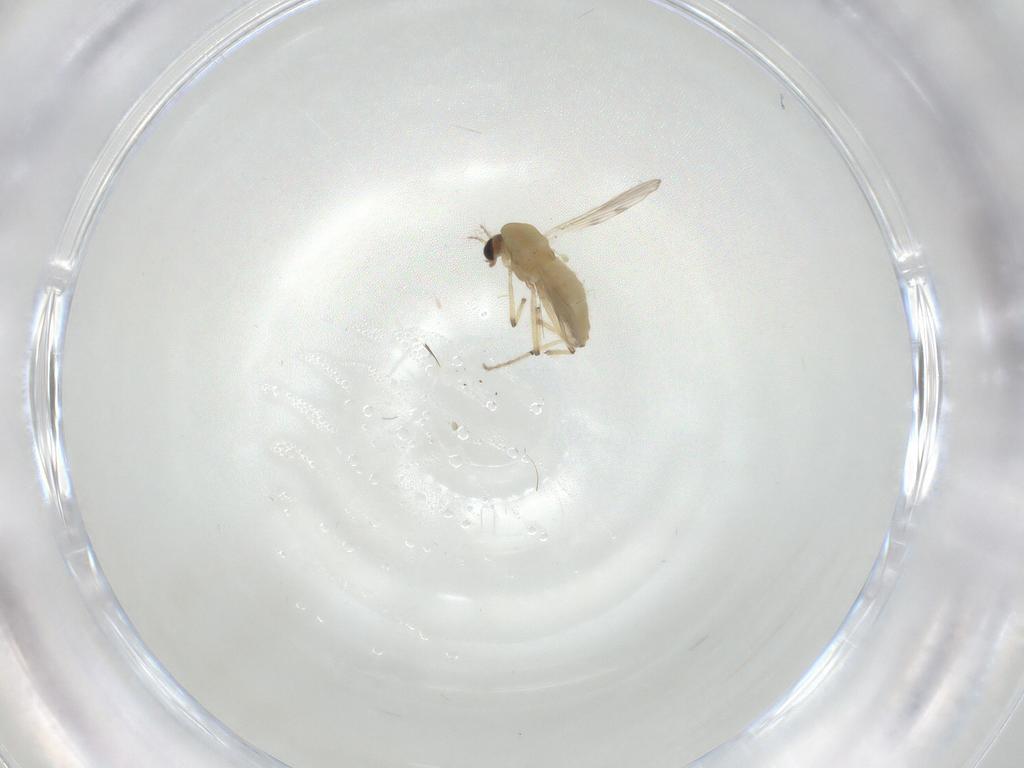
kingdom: Animalia
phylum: Arthropoda
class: Insecta
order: Diptera
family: Chironomidae
